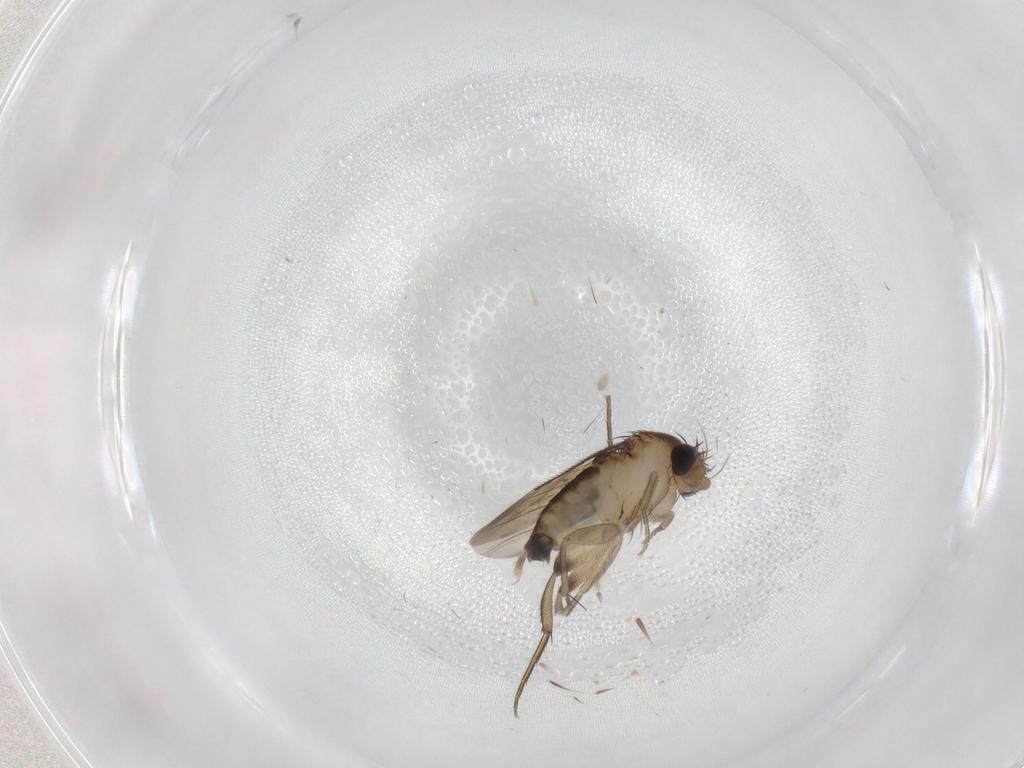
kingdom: Animalia
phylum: Arthropoda
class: Insecta
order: Diptera
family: Phoridae
